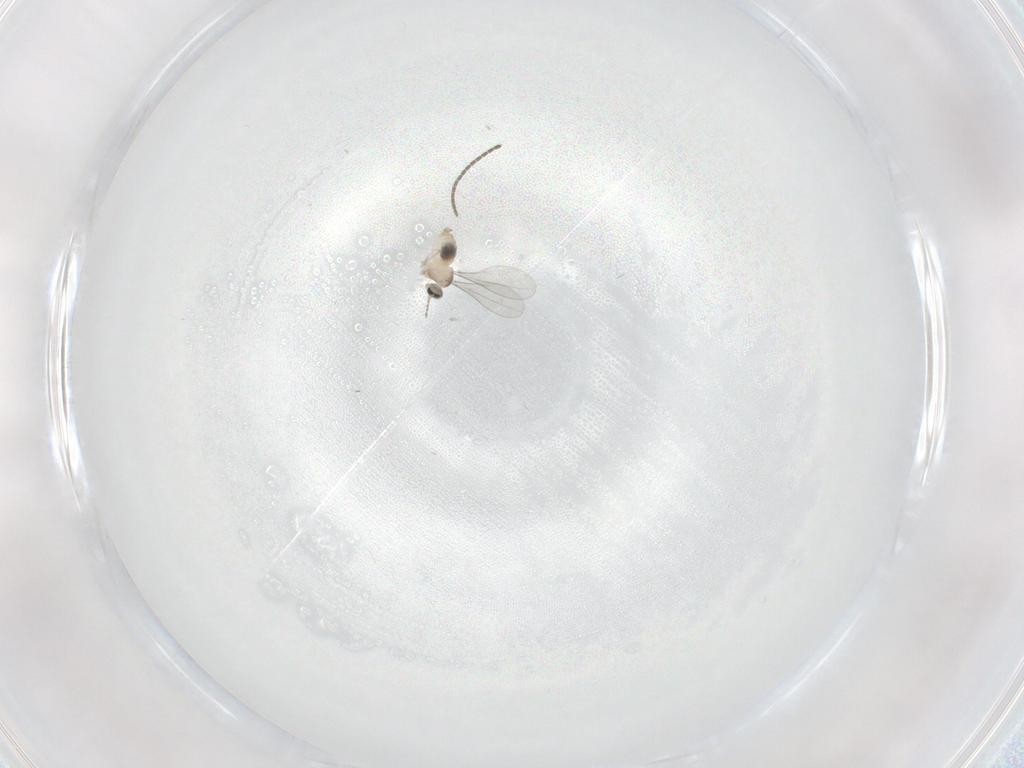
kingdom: Animalia
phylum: Arthropoda
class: Insecta
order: Diptera
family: Cecidomyiidae
